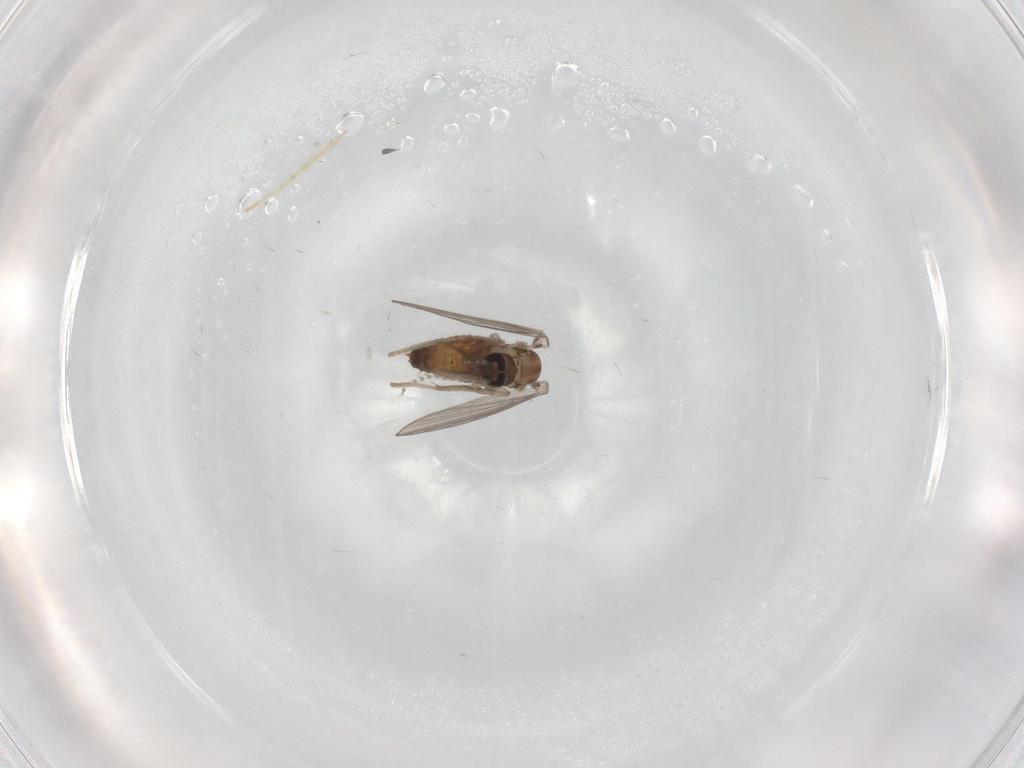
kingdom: Animalia
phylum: Arthropoda
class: Insecta
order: Diptera
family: Psychodidae
